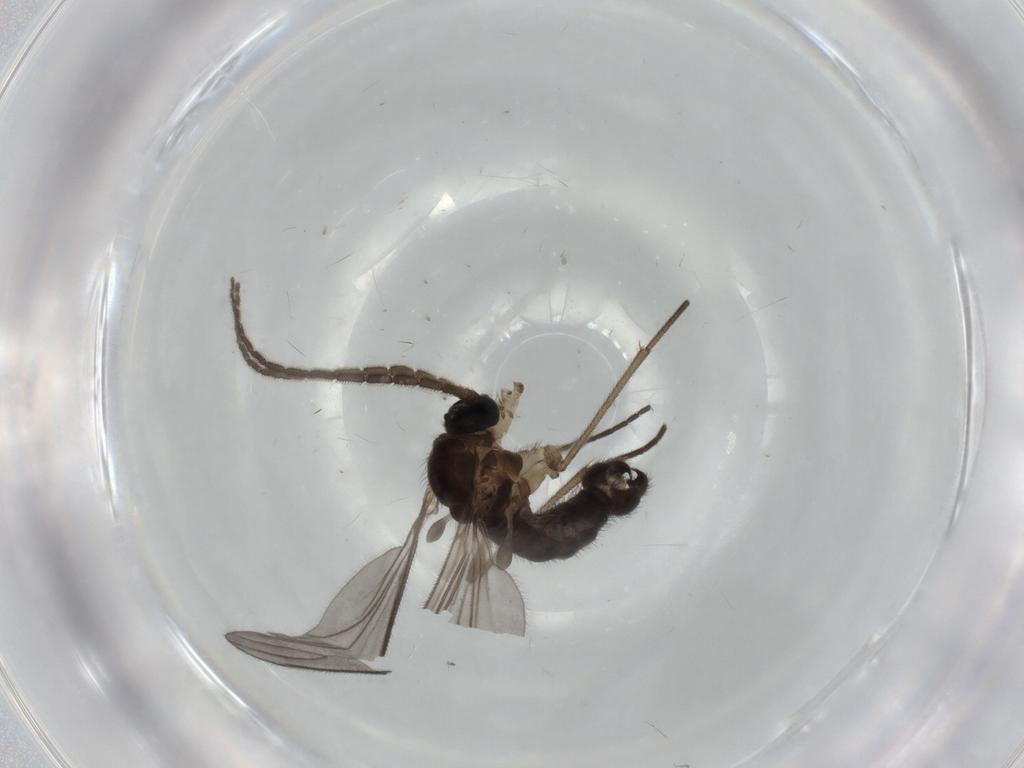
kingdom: Animalia
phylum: Arthropoda
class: Insecta
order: Diptera
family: Sciaridae
